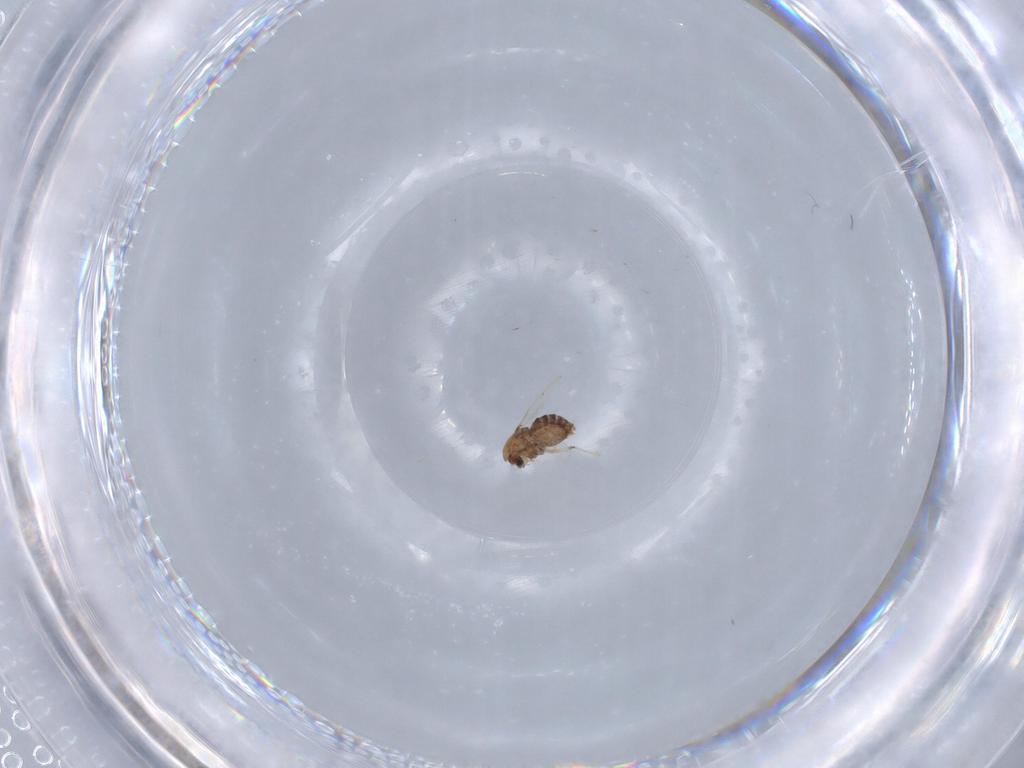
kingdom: Animalia
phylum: Arthropoda
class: Insecta
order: Diptera
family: Chironomidae
